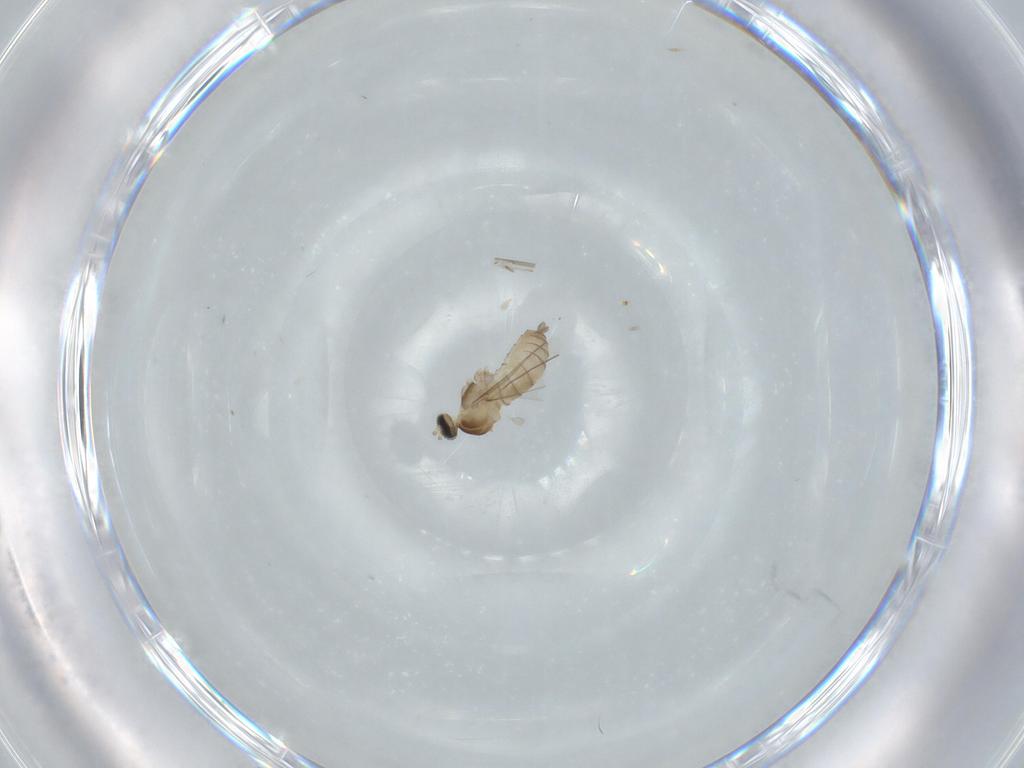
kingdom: Animalia
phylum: Arthropoda
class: Insecta
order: Diptera
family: Cecidomyiidae
